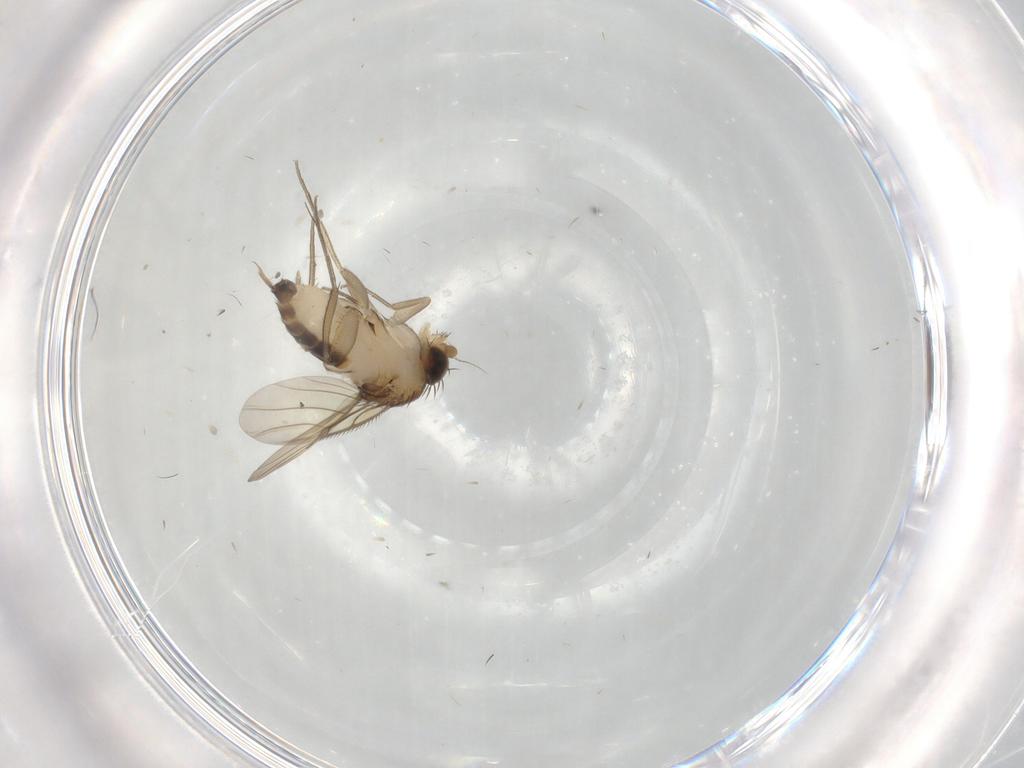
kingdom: Animalia
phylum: Arthropoda
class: Insecta
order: Diptera
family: Phoridae
